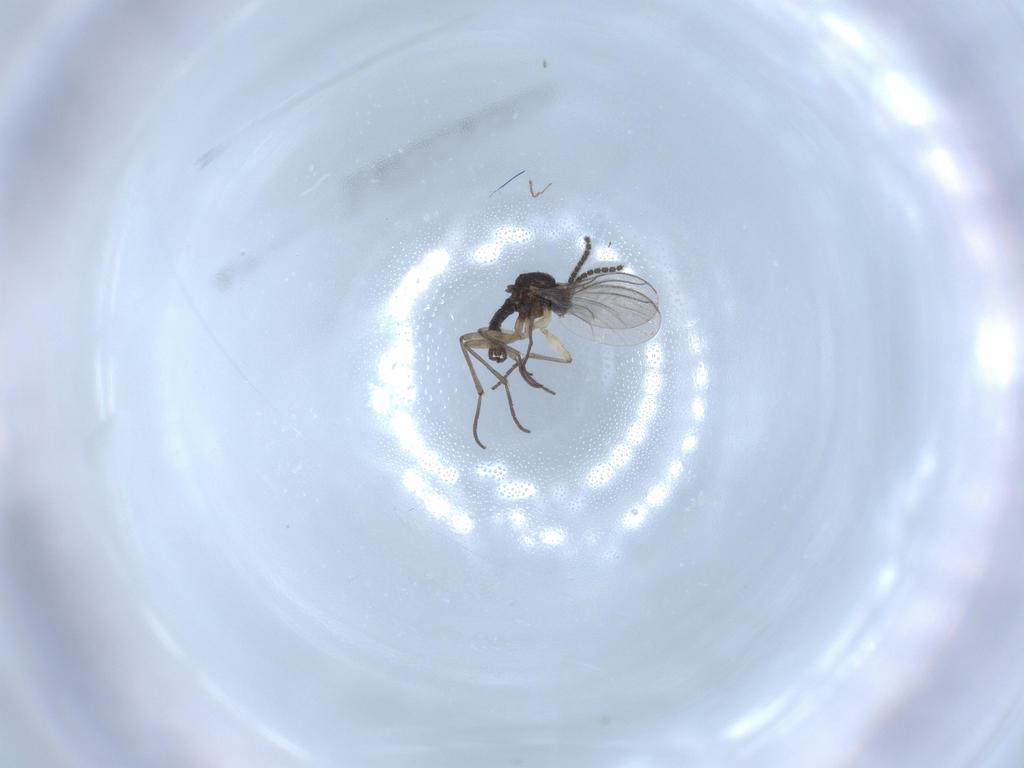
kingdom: Animalia
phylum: Arthropoda
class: Insecta
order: Diptera
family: Sciaridae
